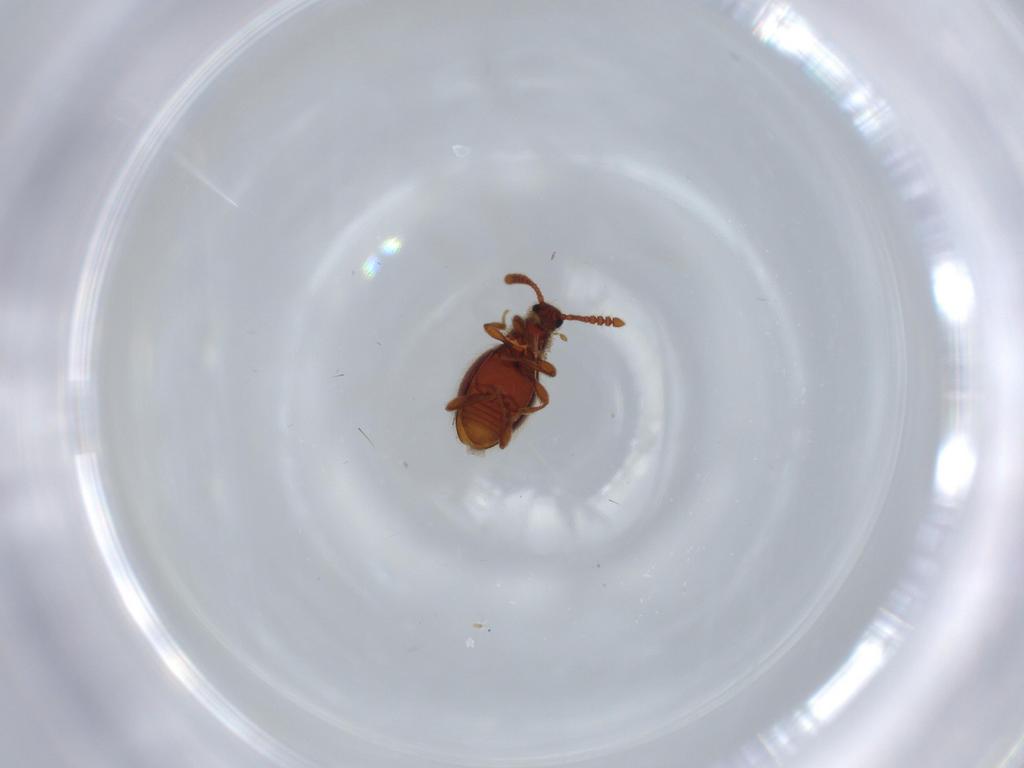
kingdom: Animalia
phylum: Arthropoda
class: Insecta
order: Coleoptera
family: Staphylinidae
